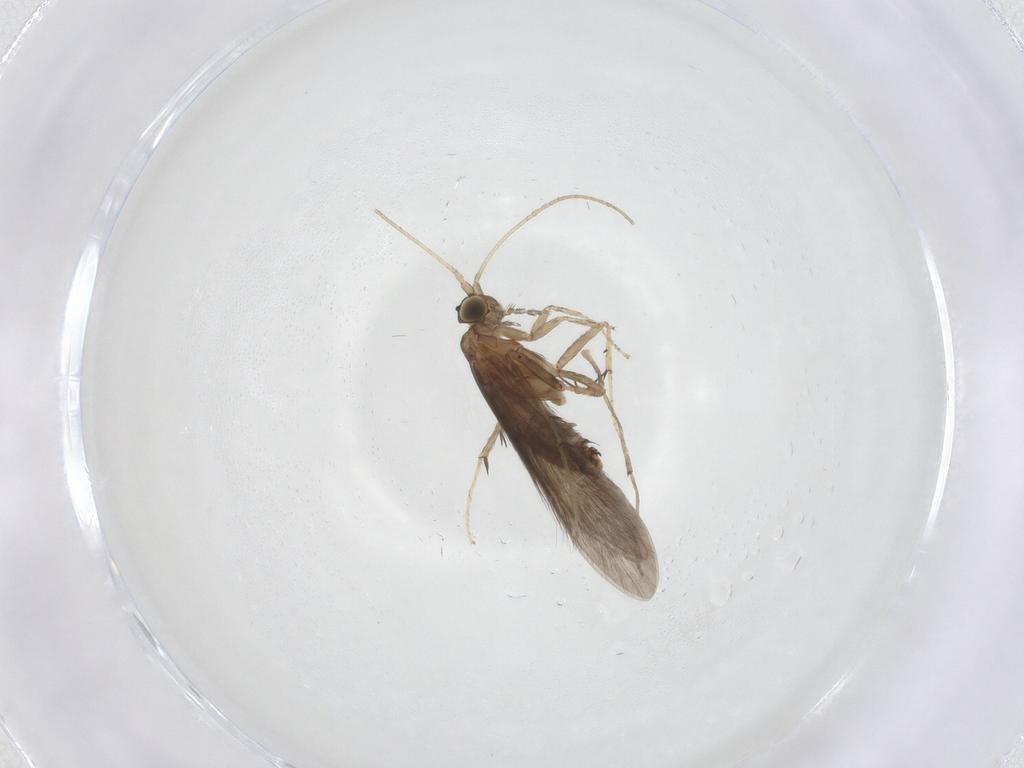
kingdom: Animalia
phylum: Arthropoda
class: Insecta
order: Trichoptera
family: Glossosomatidae
